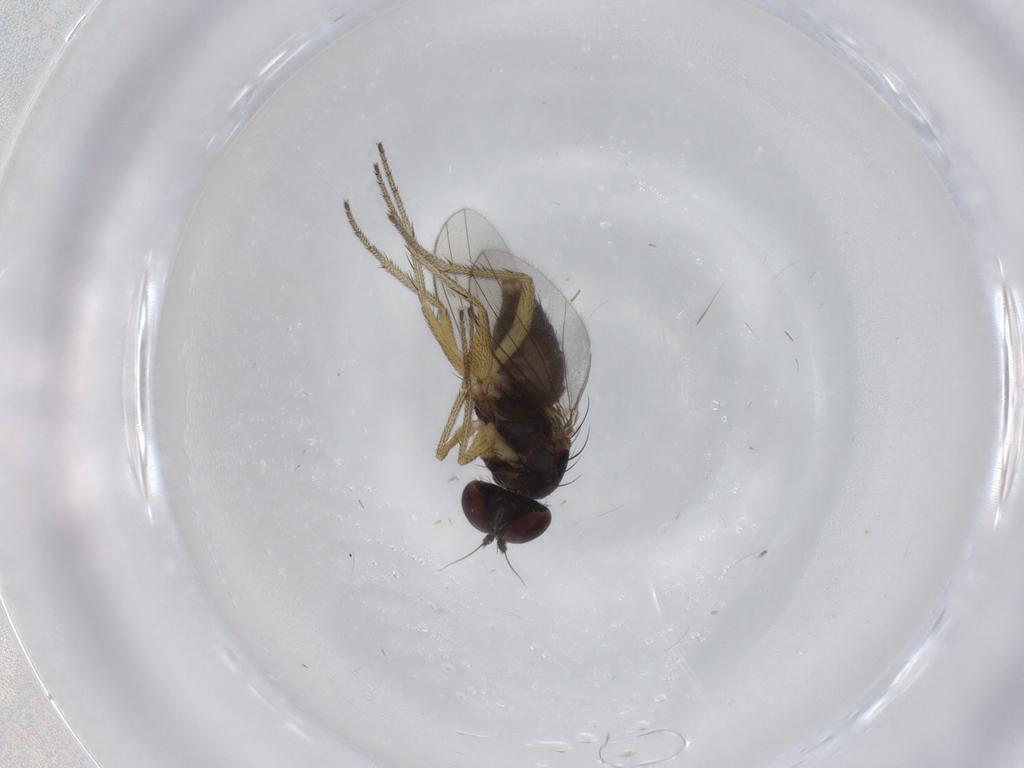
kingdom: Animalia
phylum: Arthropoda
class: Insecta
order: Diptera
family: Dolichopodidae
